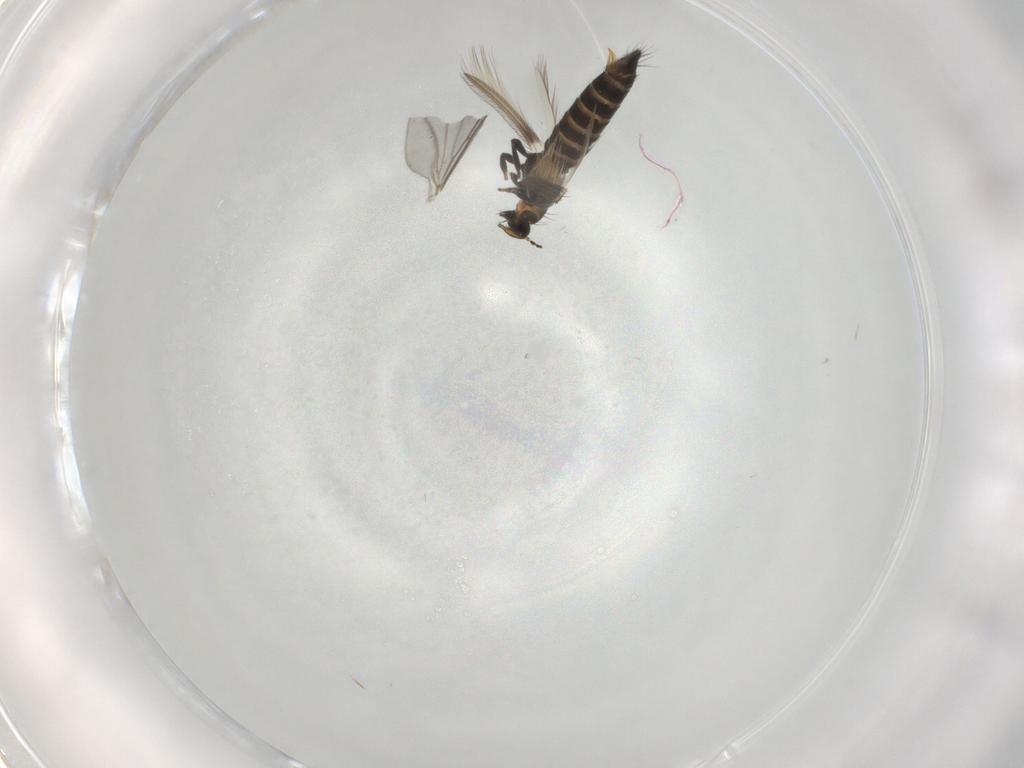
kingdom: Animalia
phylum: Arthropoda
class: Insecta
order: Thysanoptera
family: Thripidae
